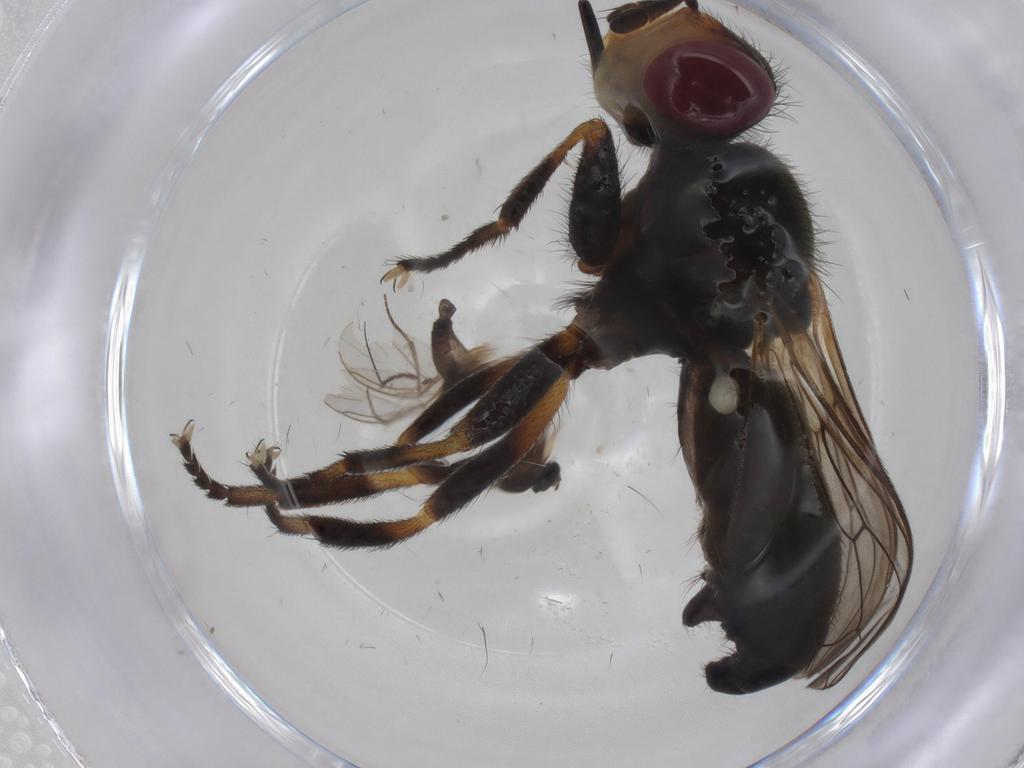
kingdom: Animalia
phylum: Arthropoda
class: Insecta
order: Diptera
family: Sciaridae
